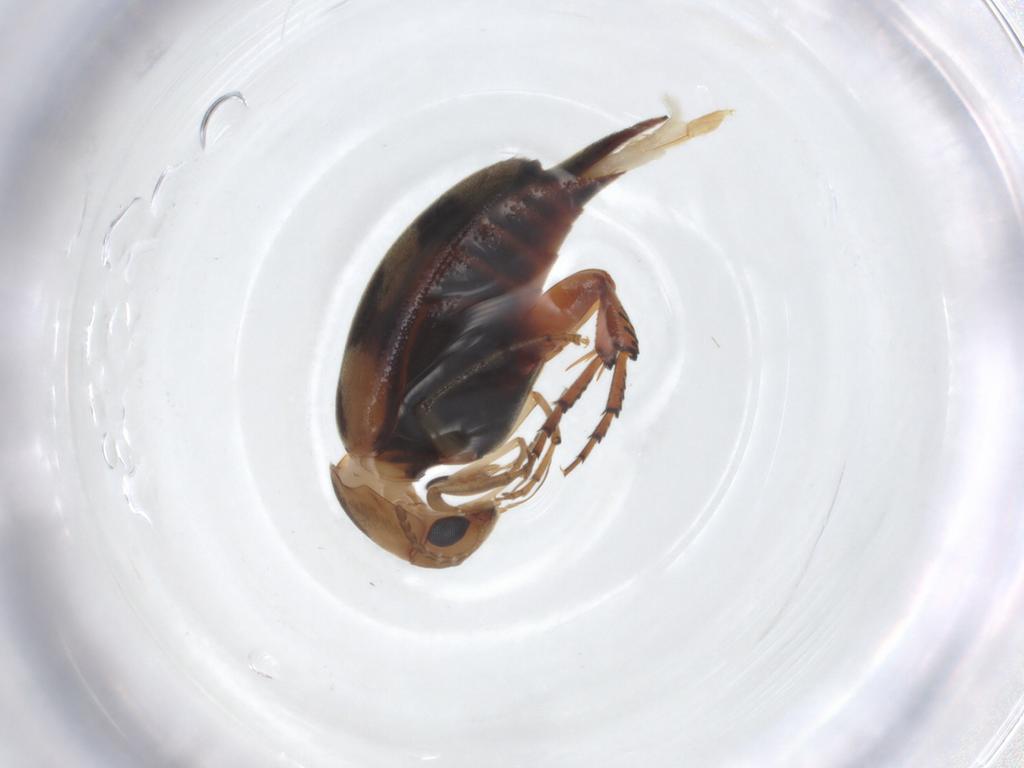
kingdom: Animalia
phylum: Arthropoda
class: Insecta
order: Coleoptera
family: Mordellidae
